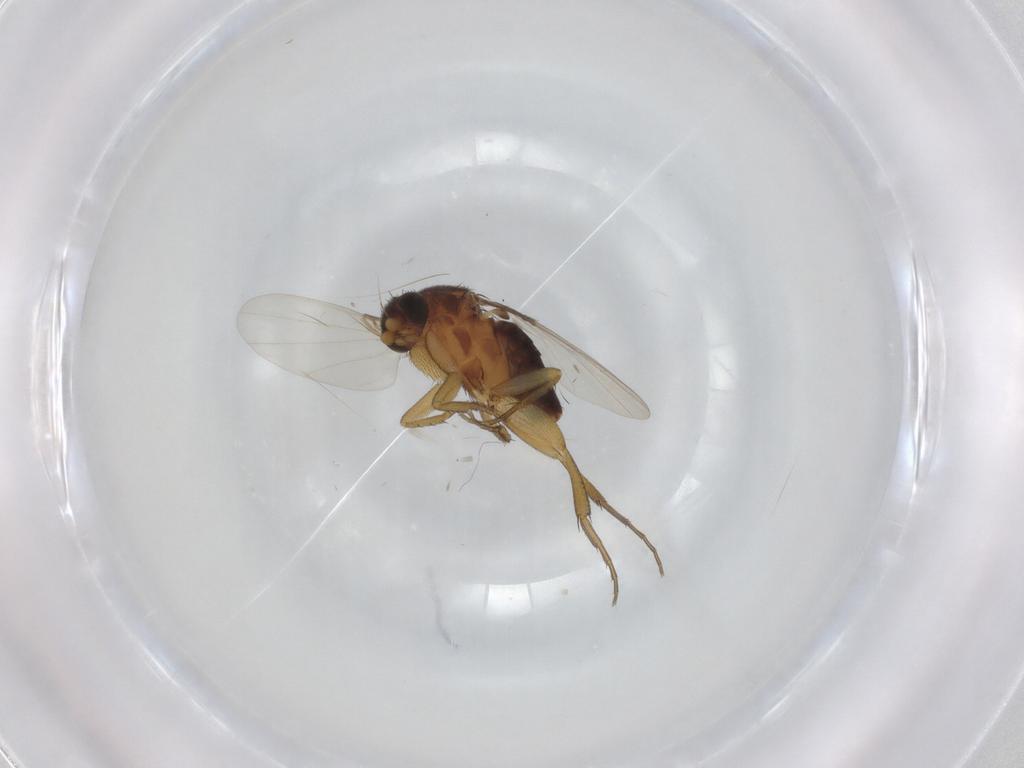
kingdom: Animalia
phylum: Arthropoda
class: Insecta
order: Diptera
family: Phoridae
